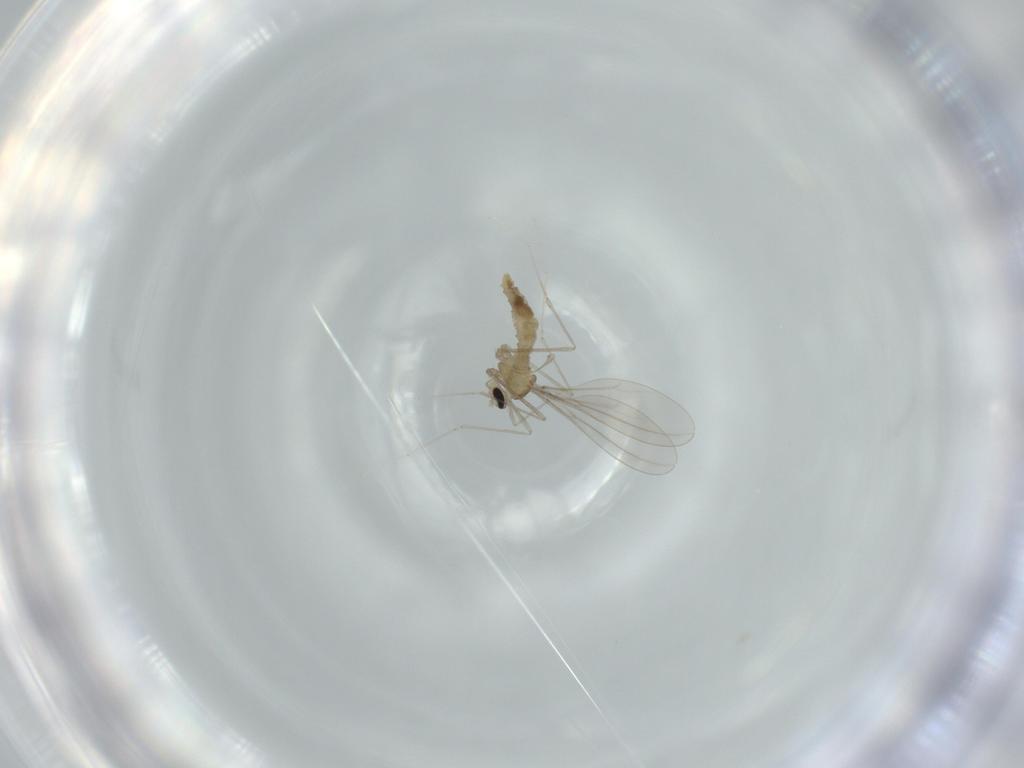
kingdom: Animalia
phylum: Arthropoda
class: Insecta
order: Diptera
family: Cecidomyiidae
